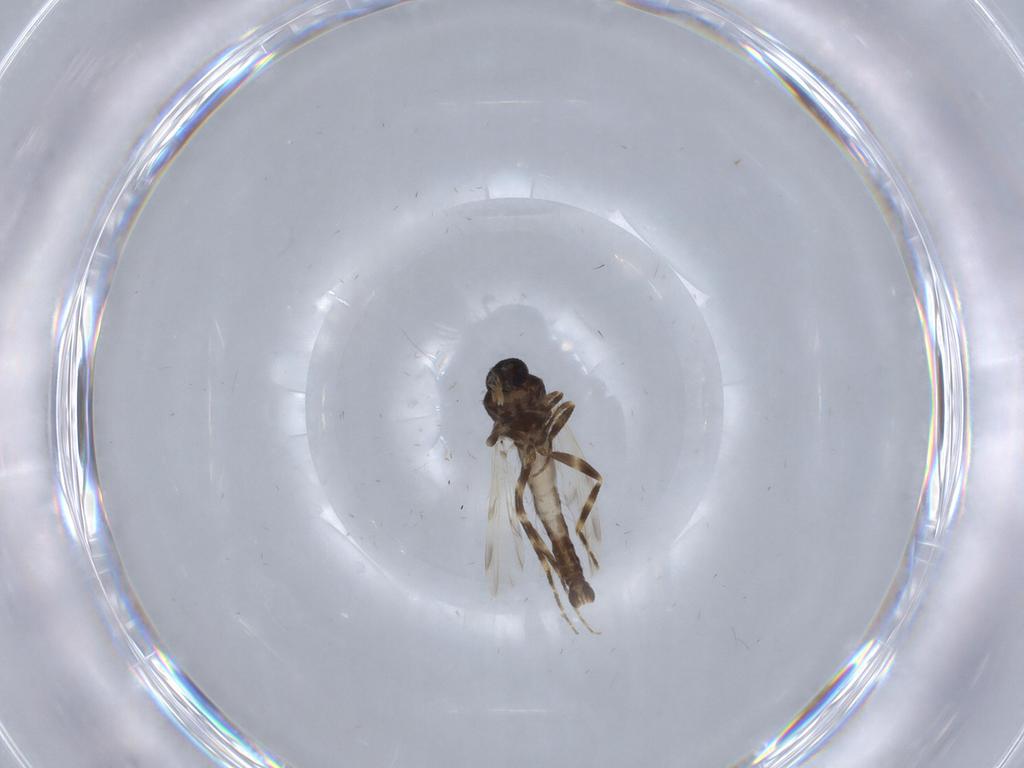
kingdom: Animalia
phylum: Arthropoda
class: Insecta
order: Diptera
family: Ceratopogonidae
